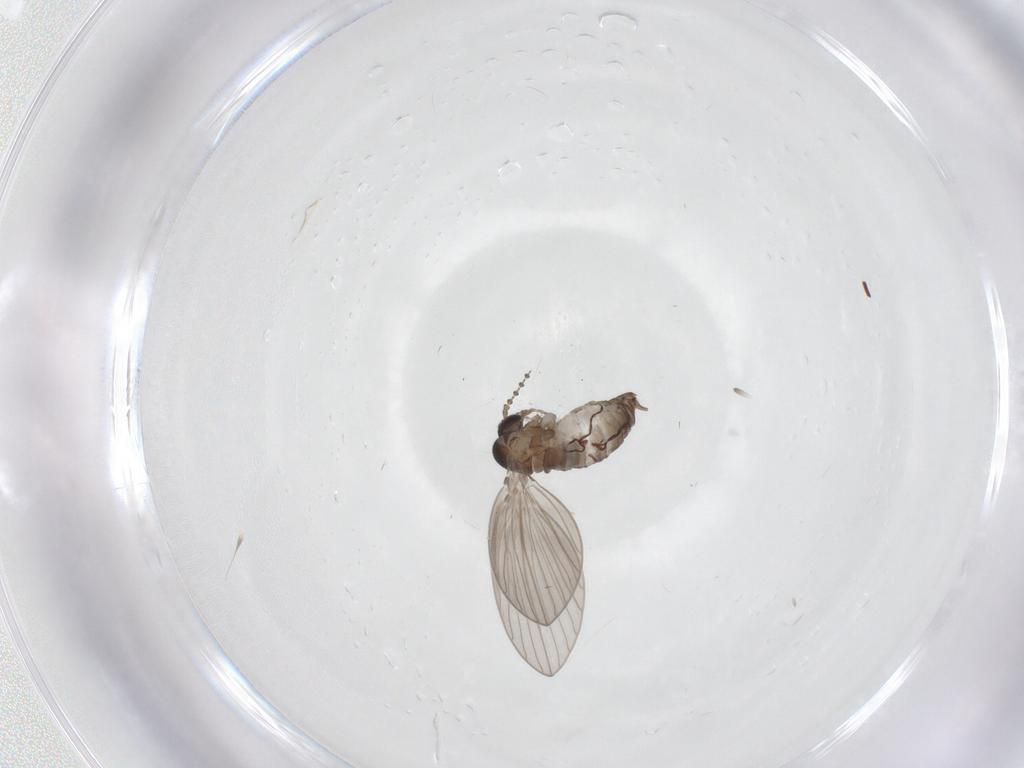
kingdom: Animalia
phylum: Arthropoda
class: Insecta
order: Diptera
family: Psychodidae
